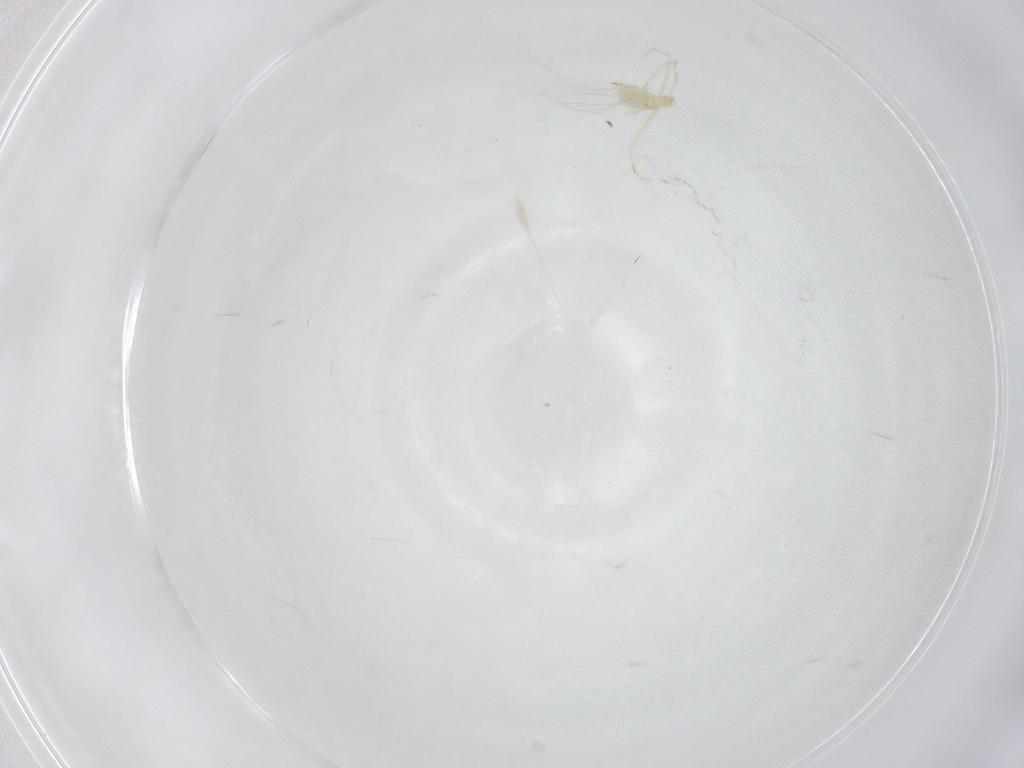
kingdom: Animalia
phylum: Arthropoda
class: Arachnida
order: Trombidiformes
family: Erythraeidae
